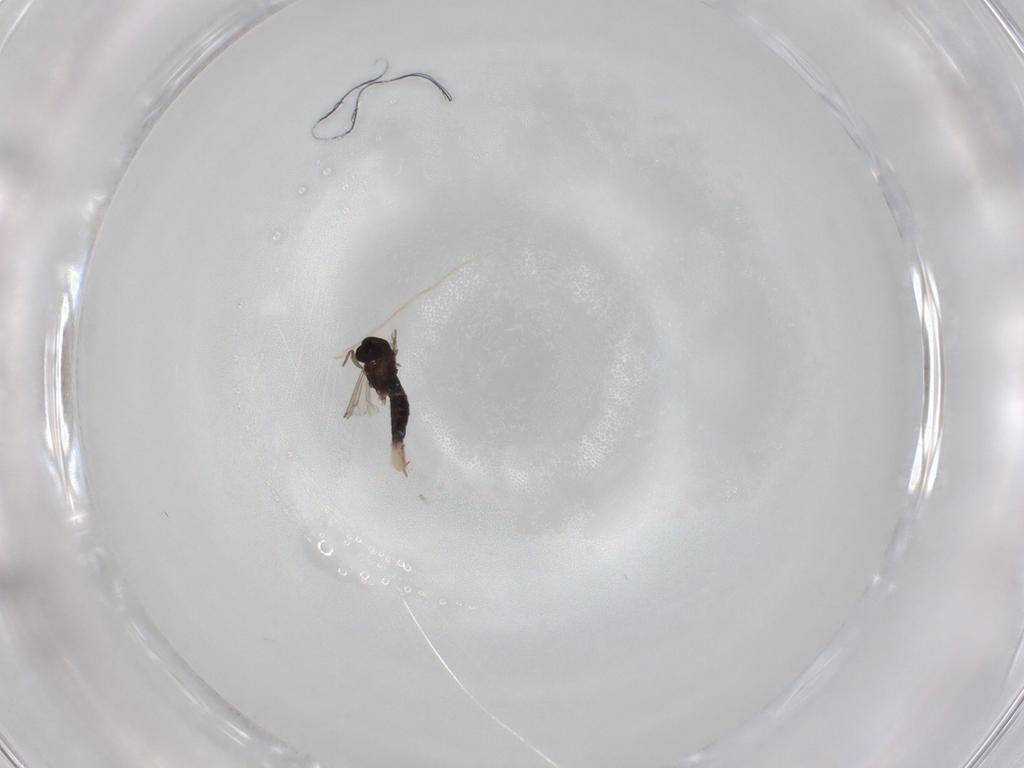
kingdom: Animalia
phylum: Arthropoda
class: Insecta
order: Diptera
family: Chironomidae
